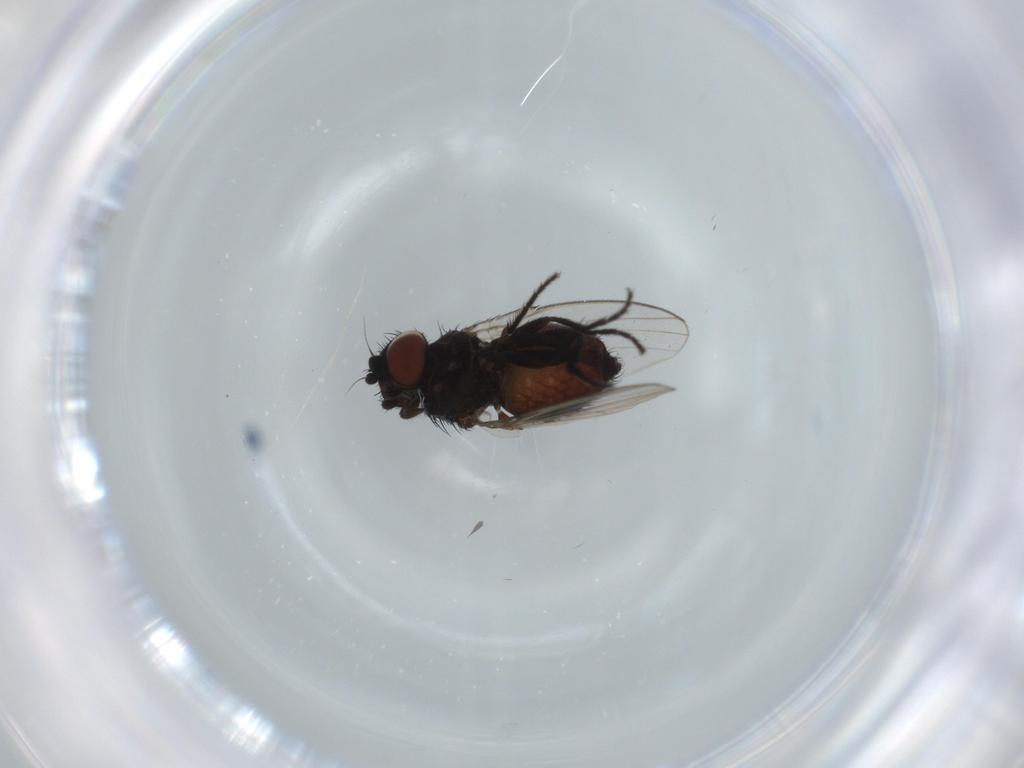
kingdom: Animalia
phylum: Arthropoda
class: Insecta
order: Diptera
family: Milichiidae
